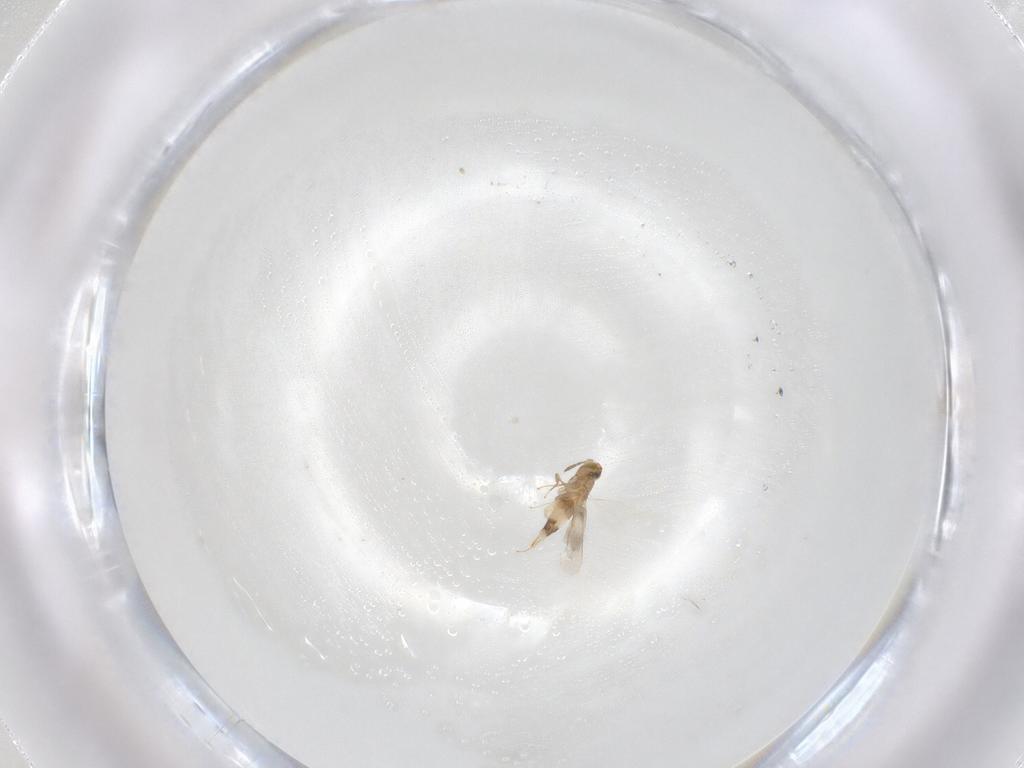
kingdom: Animalia
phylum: Arthropoda
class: Insecta
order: Hymenoptera
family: Aphelinidae
